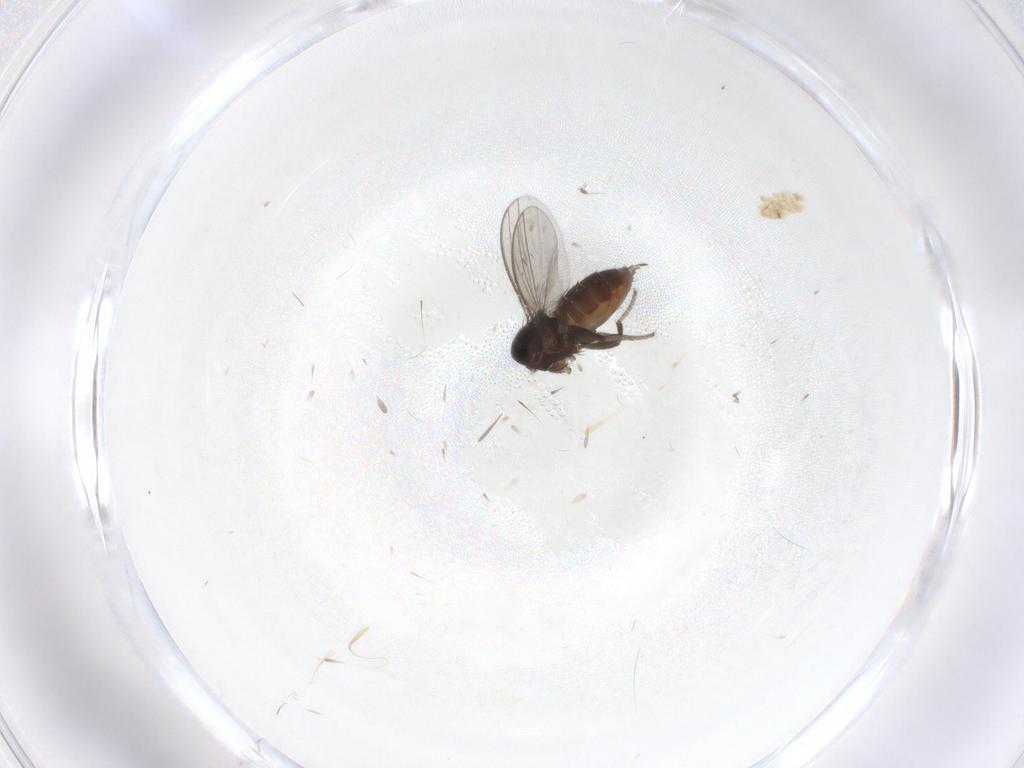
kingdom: Animalia
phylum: Arthropoda
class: Insecta
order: Diptera
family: Milichiidae
